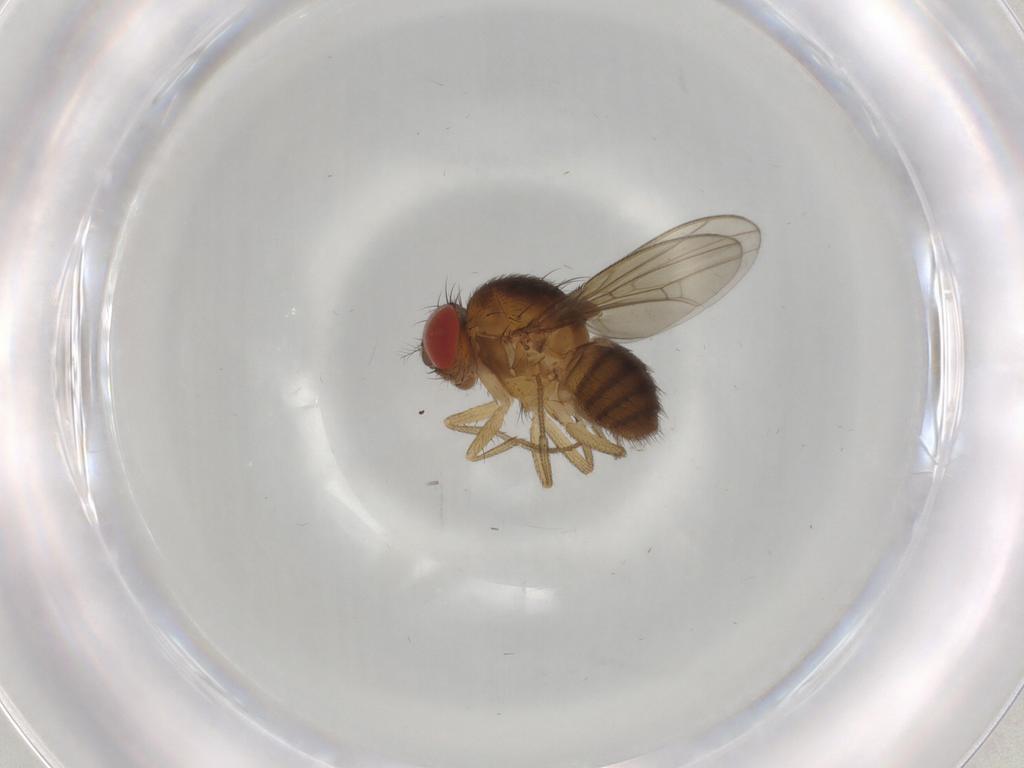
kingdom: Animalia
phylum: Arthropoda
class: Insecta
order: Diptera
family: Drosophilidae
